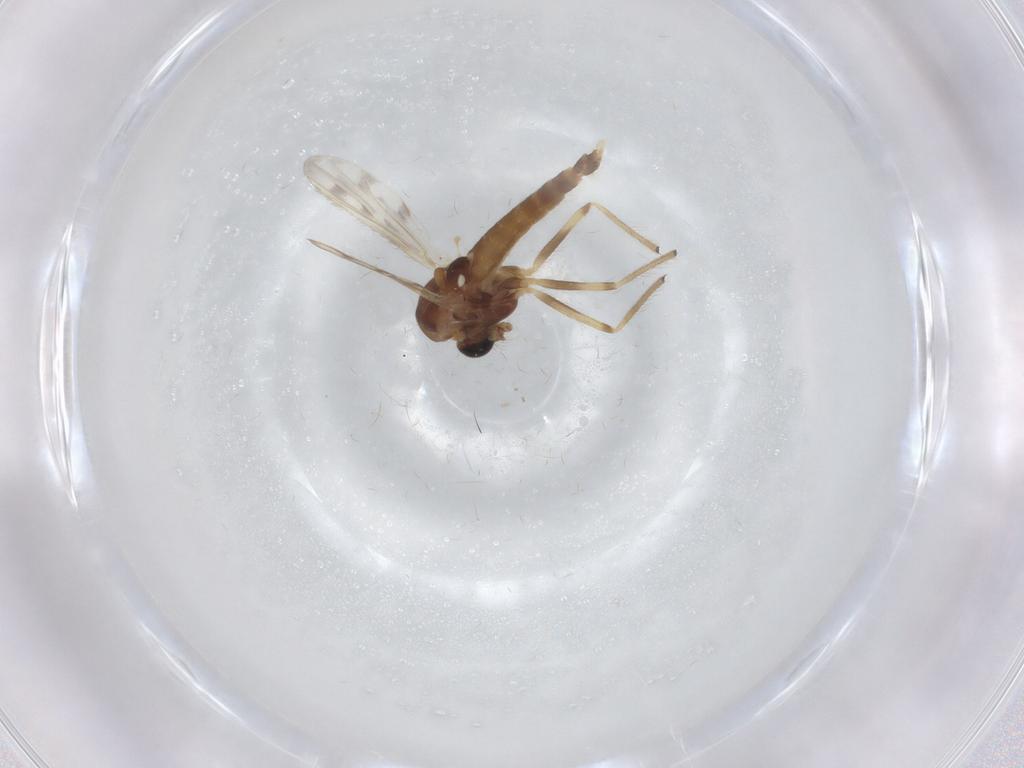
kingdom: Animalia
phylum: Arthropoda
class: Insecta
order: Diptera
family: Chironomidae
